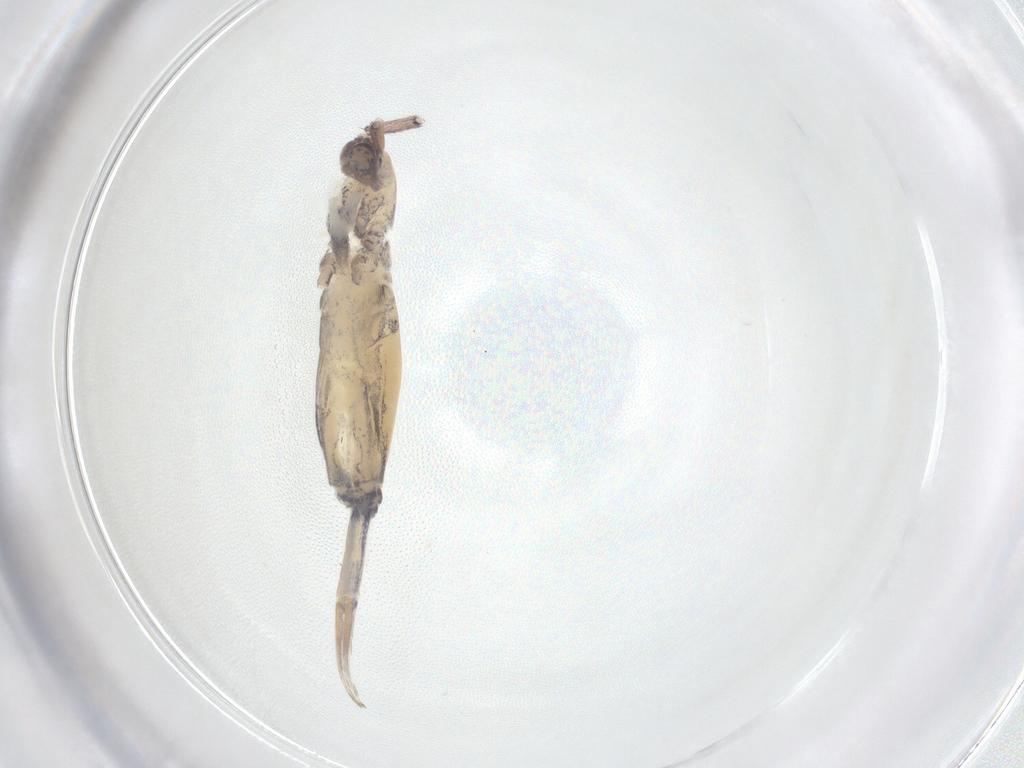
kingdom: Animalia
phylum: Arthropoda
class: Collembola
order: Entomobryomorpha
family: Entomobryidae
